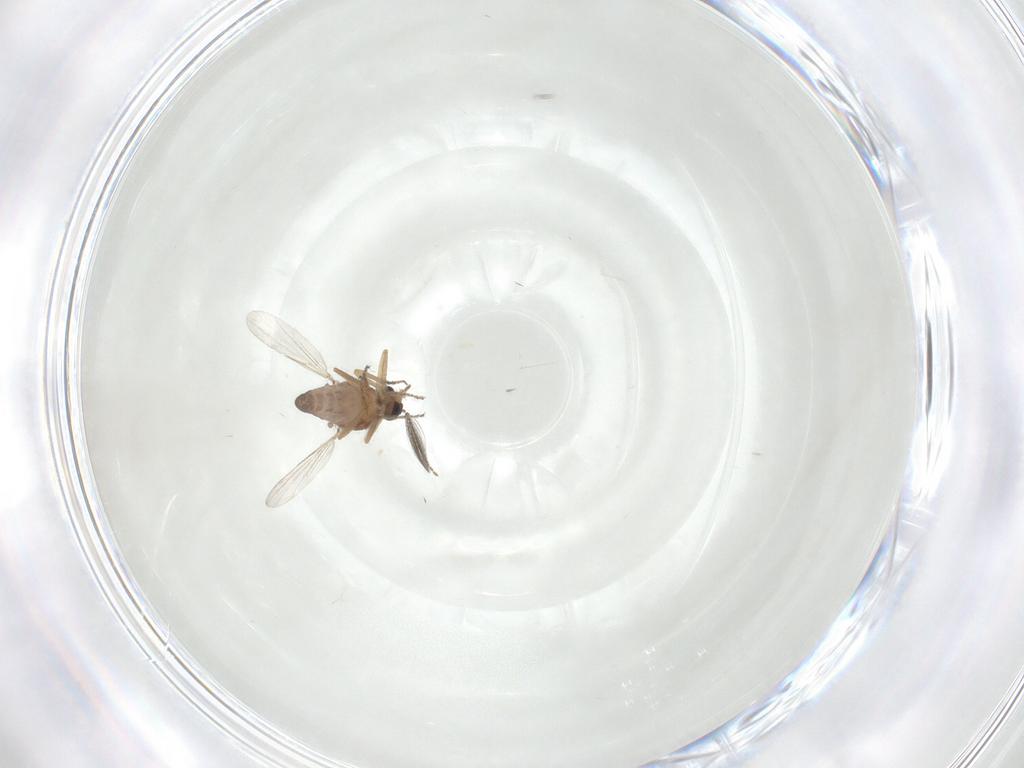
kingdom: Animalia
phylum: Arthropoda
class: Insecta
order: Diptera
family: Ceratopogonidae
